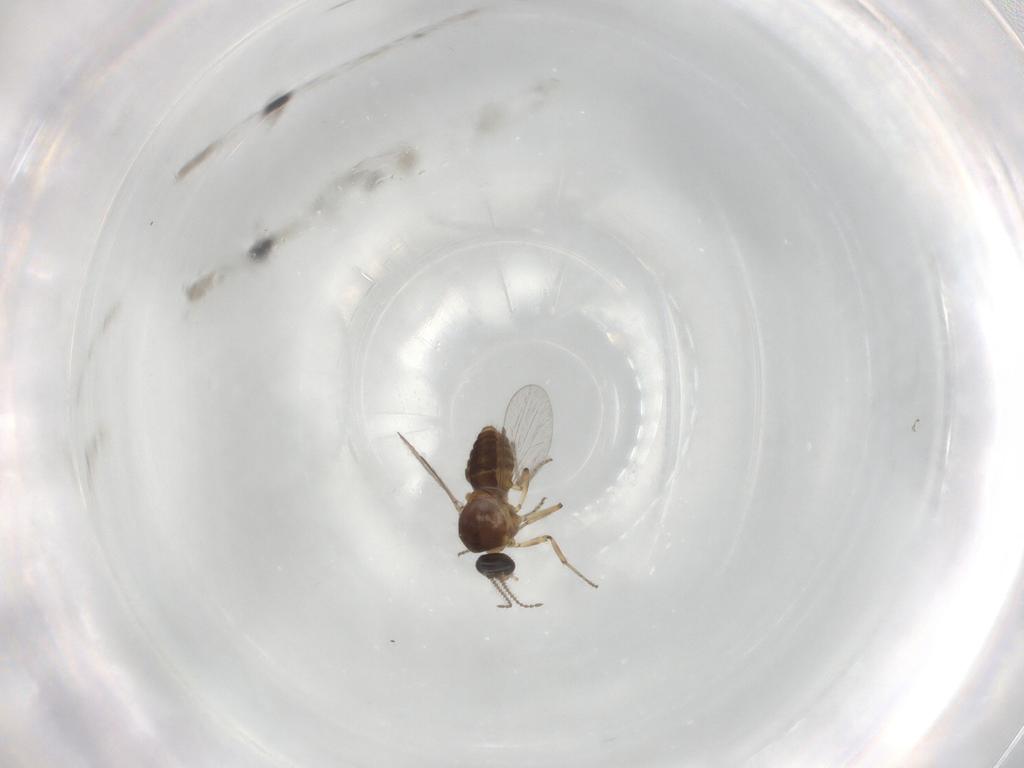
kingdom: Animalia
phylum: Arthropoda
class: Insecta
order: Diptera
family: Ceratopogonidae
